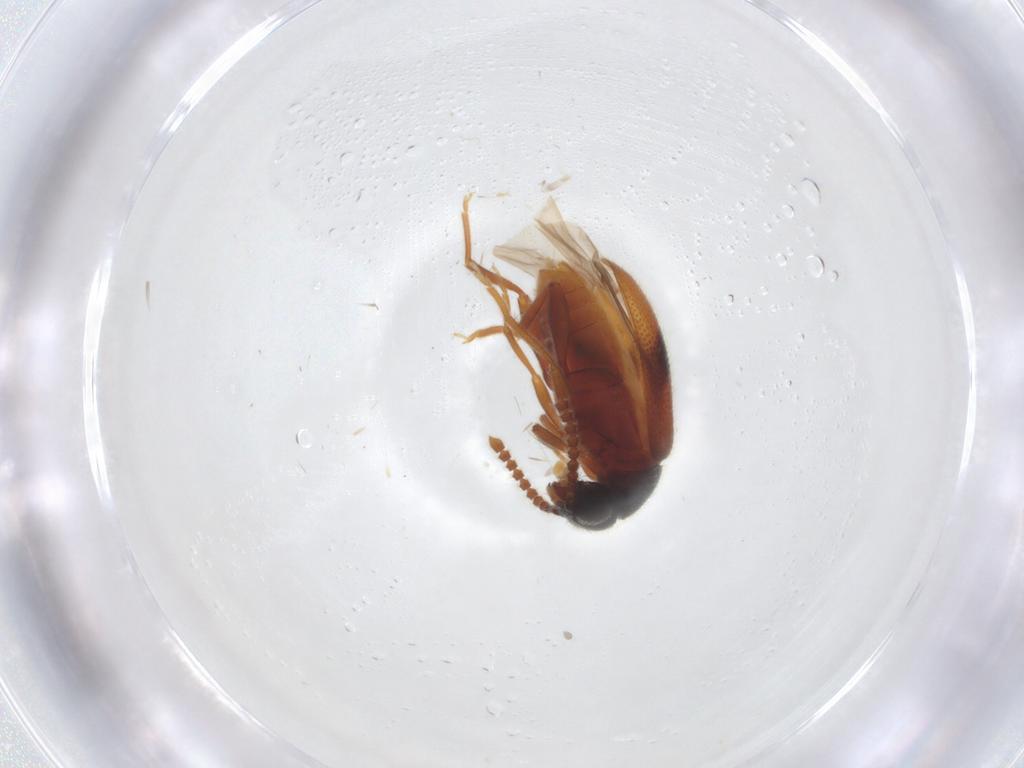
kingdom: Animalia
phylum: Arthropoda
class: Insecta
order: Coleoptera
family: Aderidae
